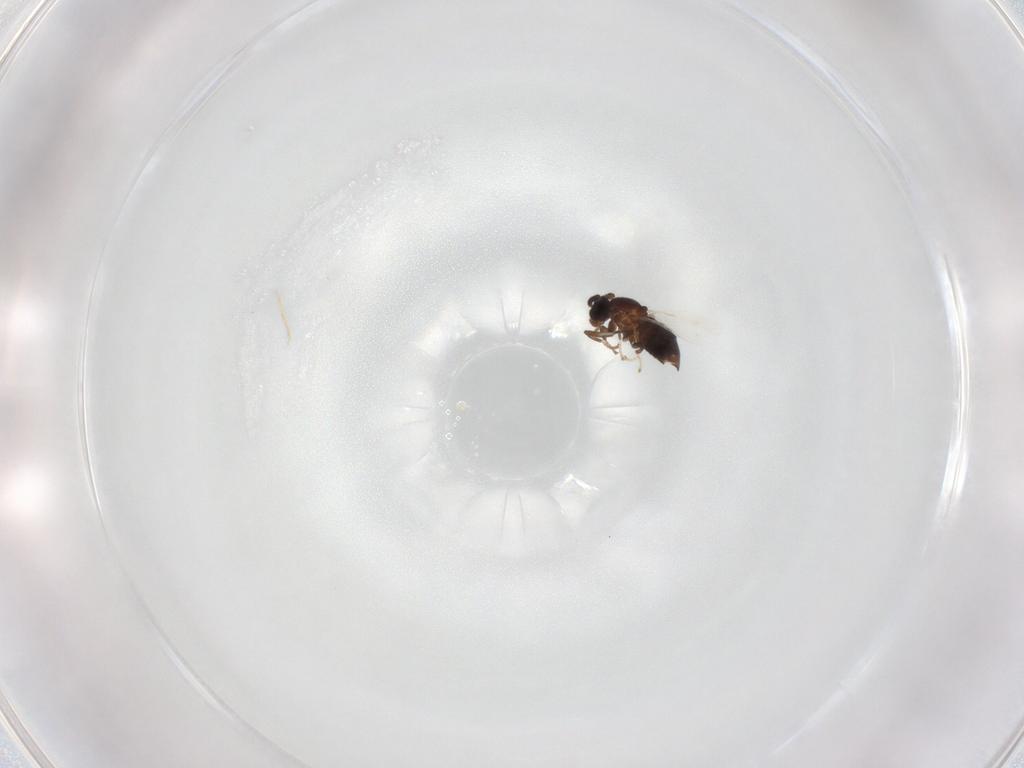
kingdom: Animalia
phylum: Arthropoda
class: Insecta
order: Diptera
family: Scatopsidae
